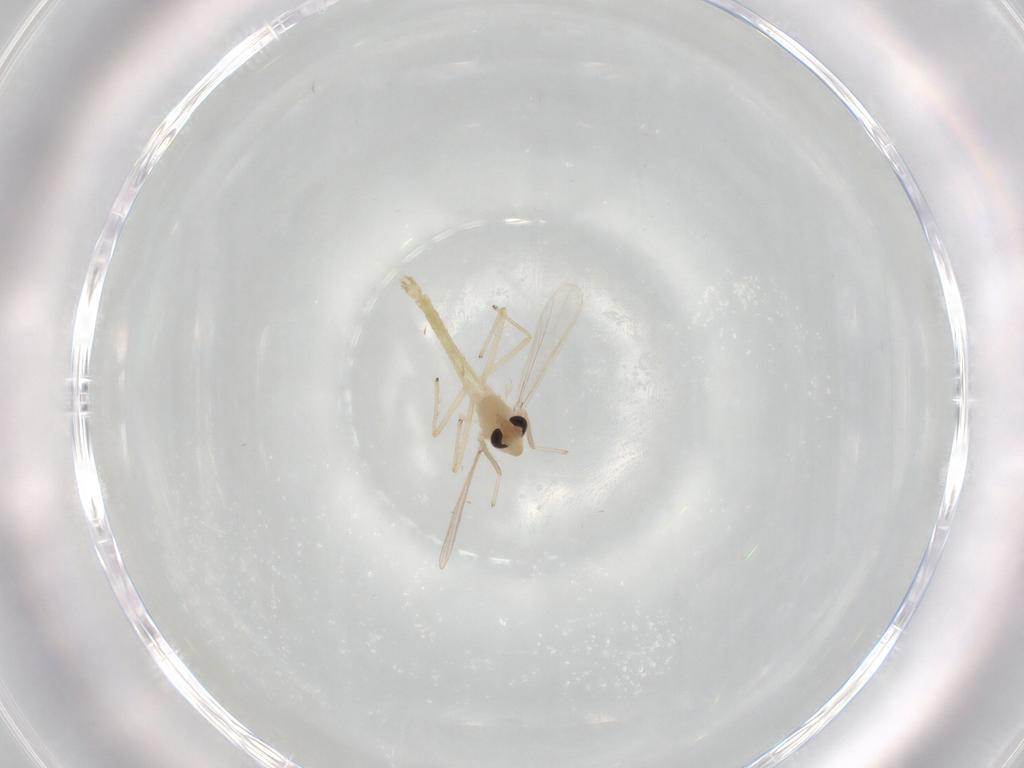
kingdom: Animalia
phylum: Arthropoda
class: Insecta
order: Diptera
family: Chironomidae
